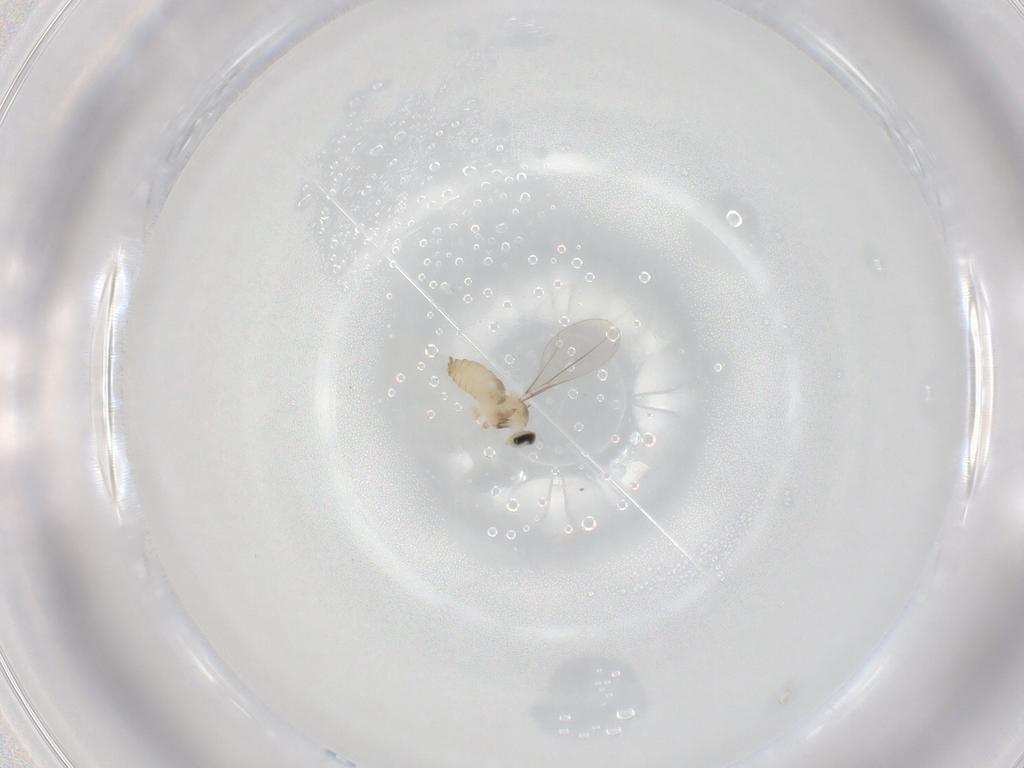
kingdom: Animalia
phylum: Arthropoda
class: Insecta
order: Diptera
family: Cecidomyiidae
